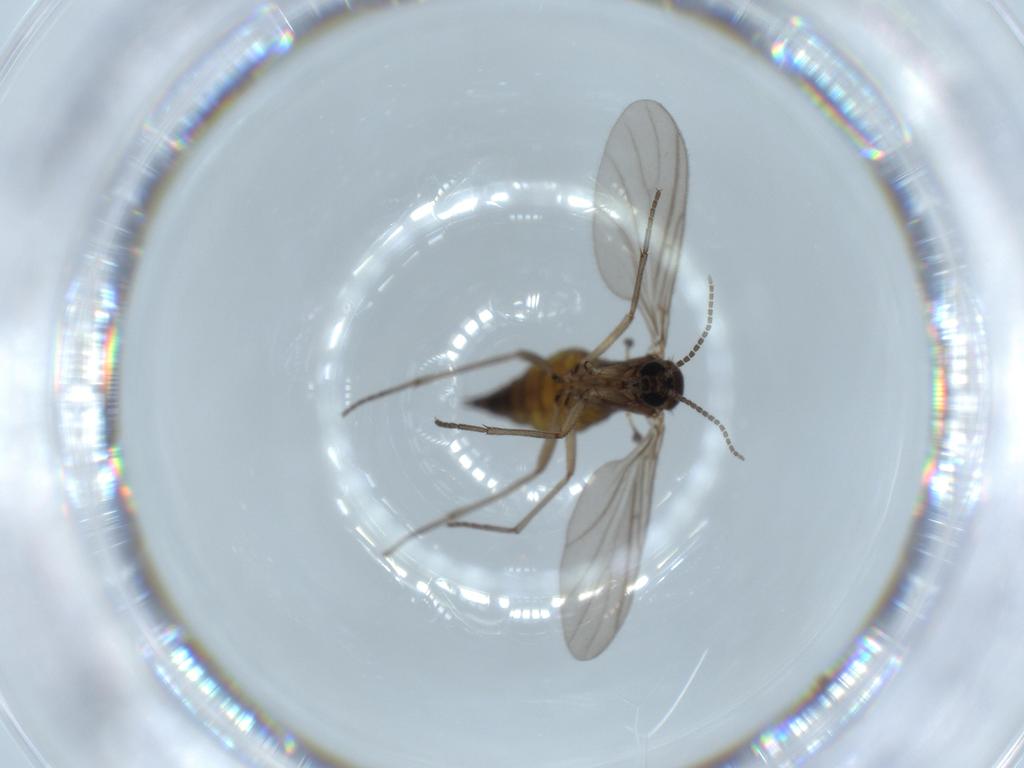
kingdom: Animalia
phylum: Arthropoda
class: Insecta
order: Diptera
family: Sciaridae
